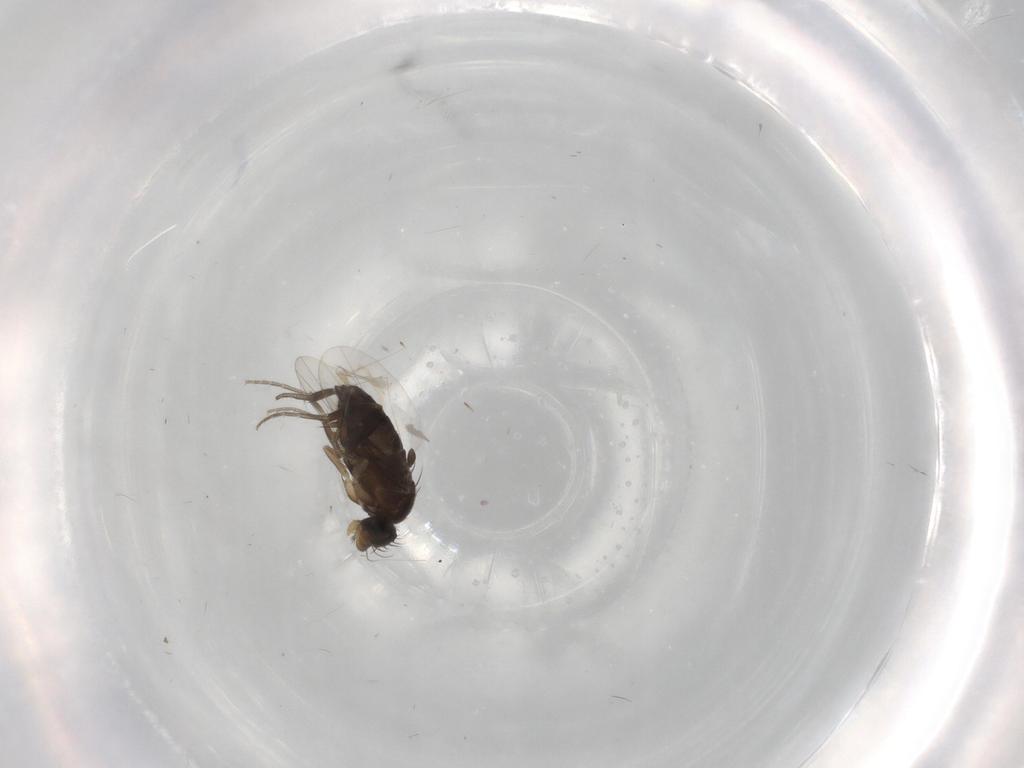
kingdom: Animalia
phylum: Arthropoda
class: Insecta
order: Diptera
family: Phoridae
